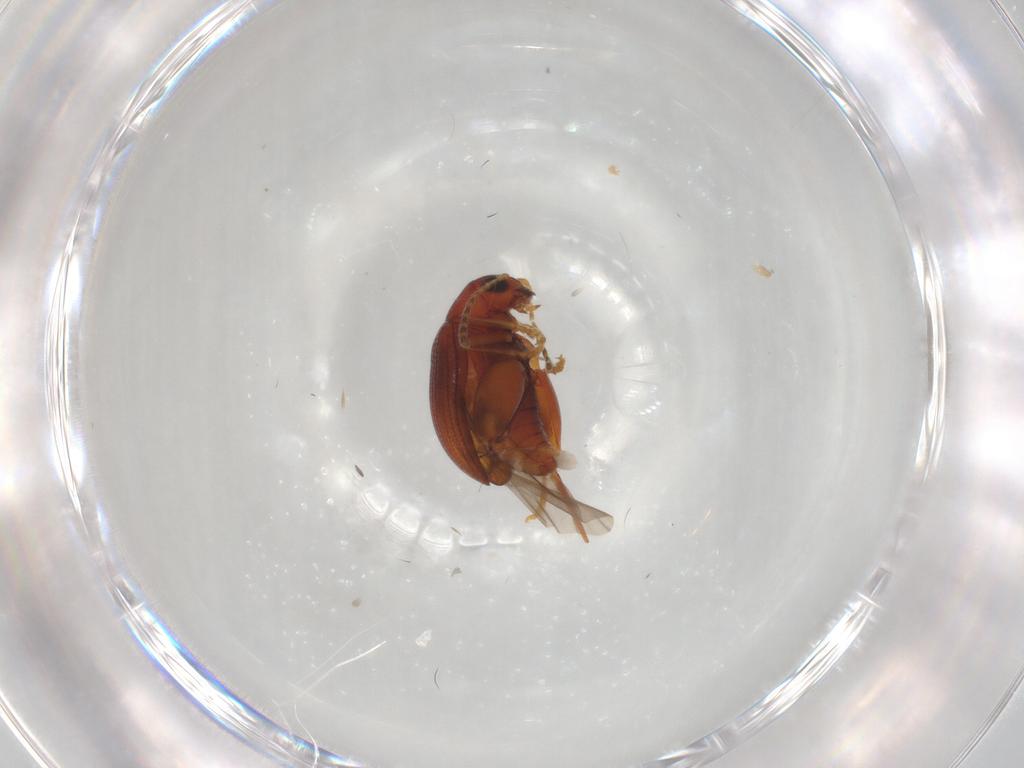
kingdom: Animalia
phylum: Arthropoda
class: Insecta
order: Coleoptera
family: Chrysomelidae
